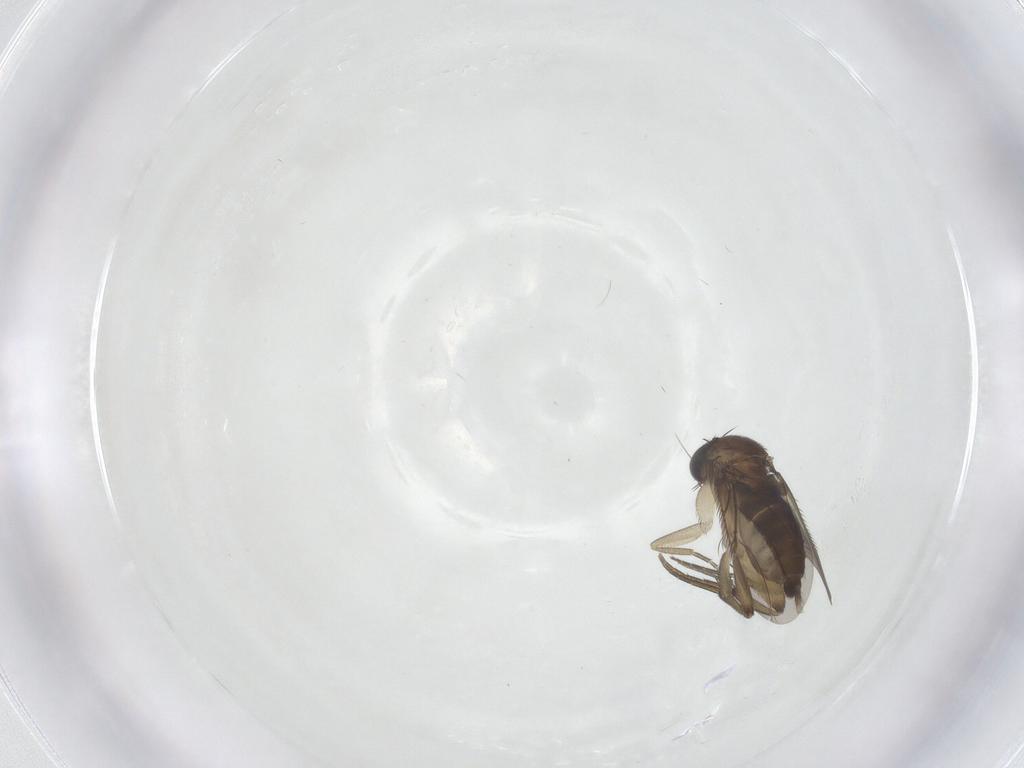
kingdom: Animalia
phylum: Arthropoda
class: Insecta
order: Diptera
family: Phoridae
